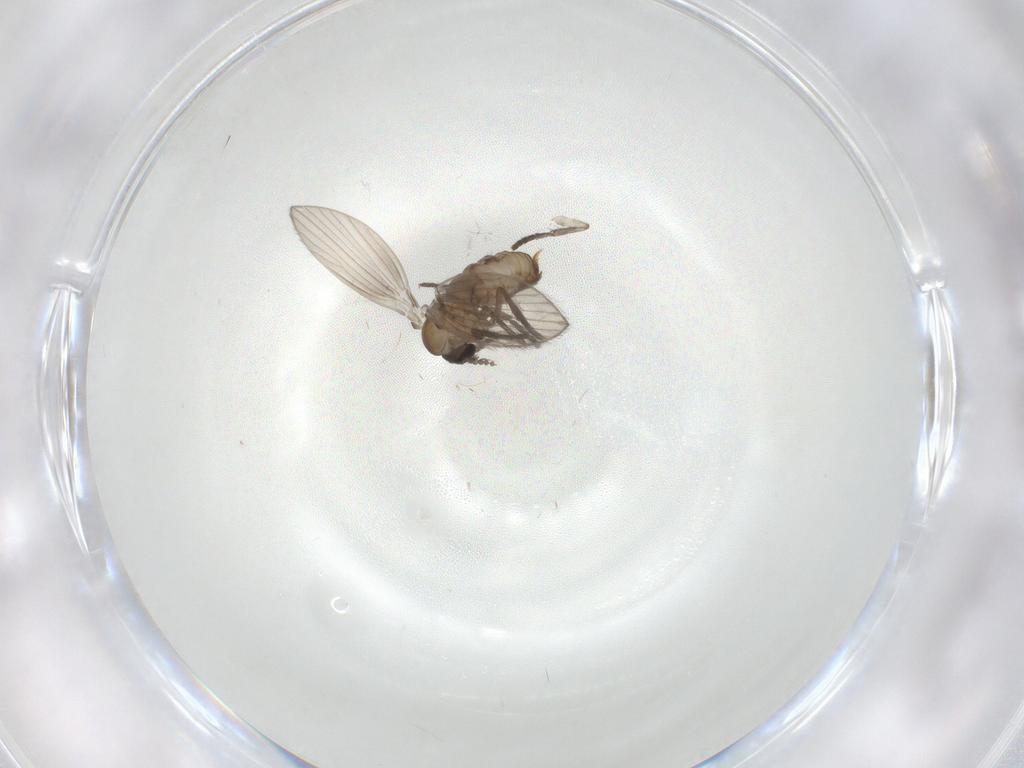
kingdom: Animalia
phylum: Arthropoda
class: Insecta
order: Diptera
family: Psychodidae
